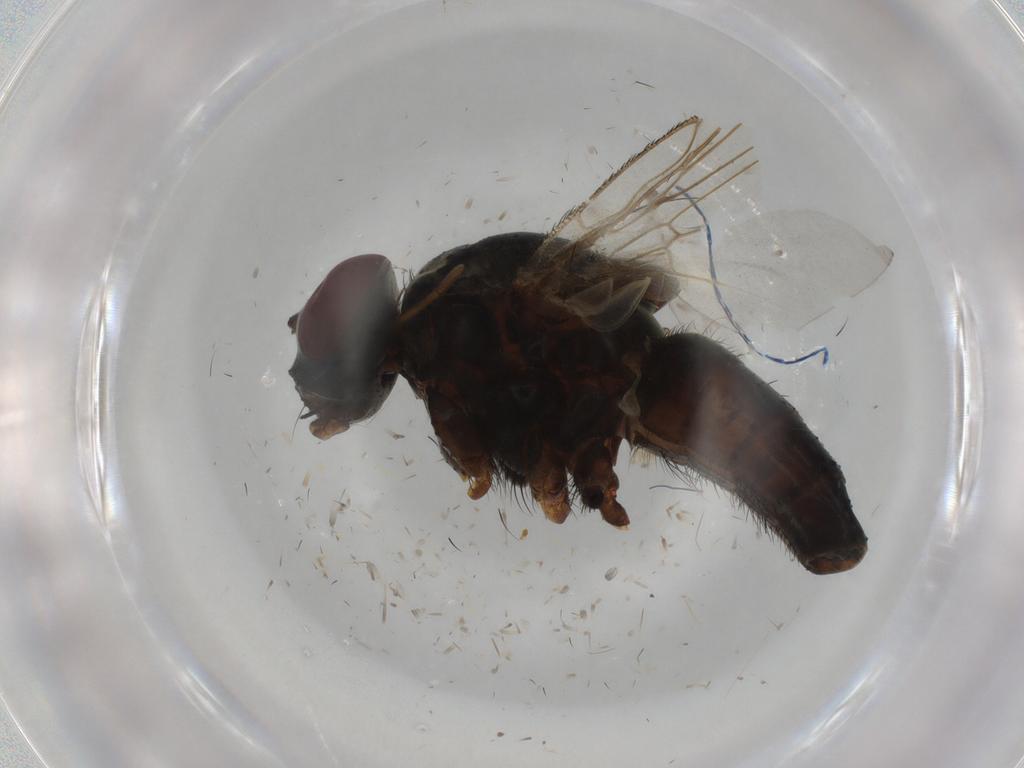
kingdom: Animalia
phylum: Arthropoda
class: Insecta
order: Diptera
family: Muscidae
